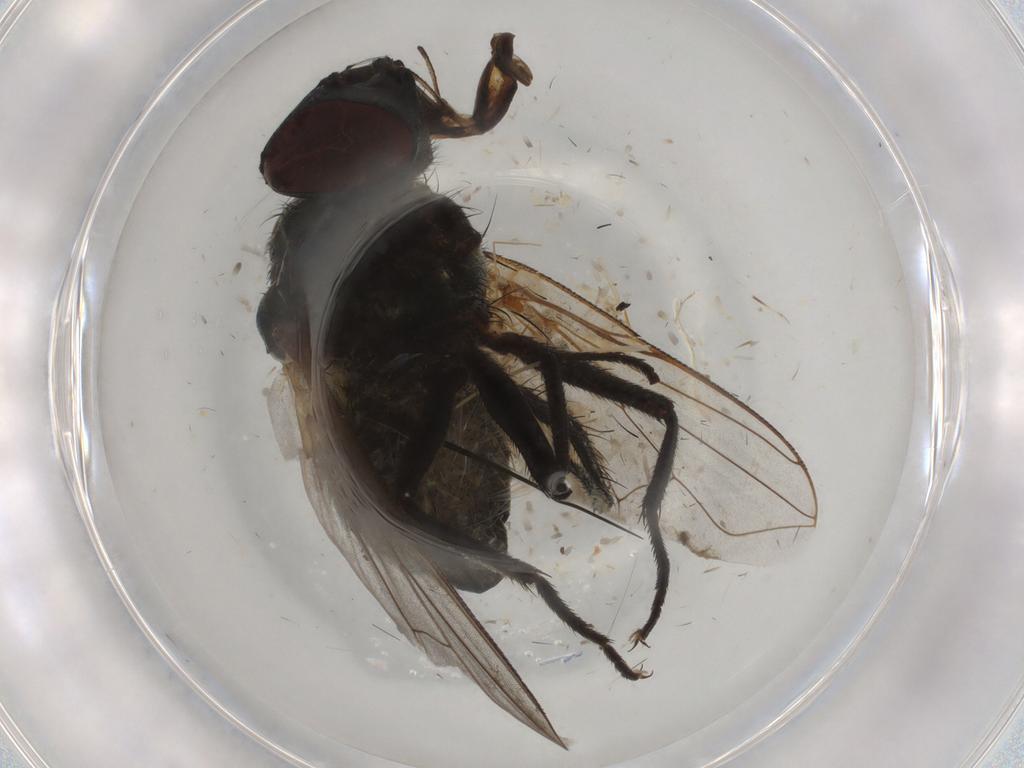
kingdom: Animalia
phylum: Arthropoda
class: Insecta
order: Diptera
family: Muscidae
